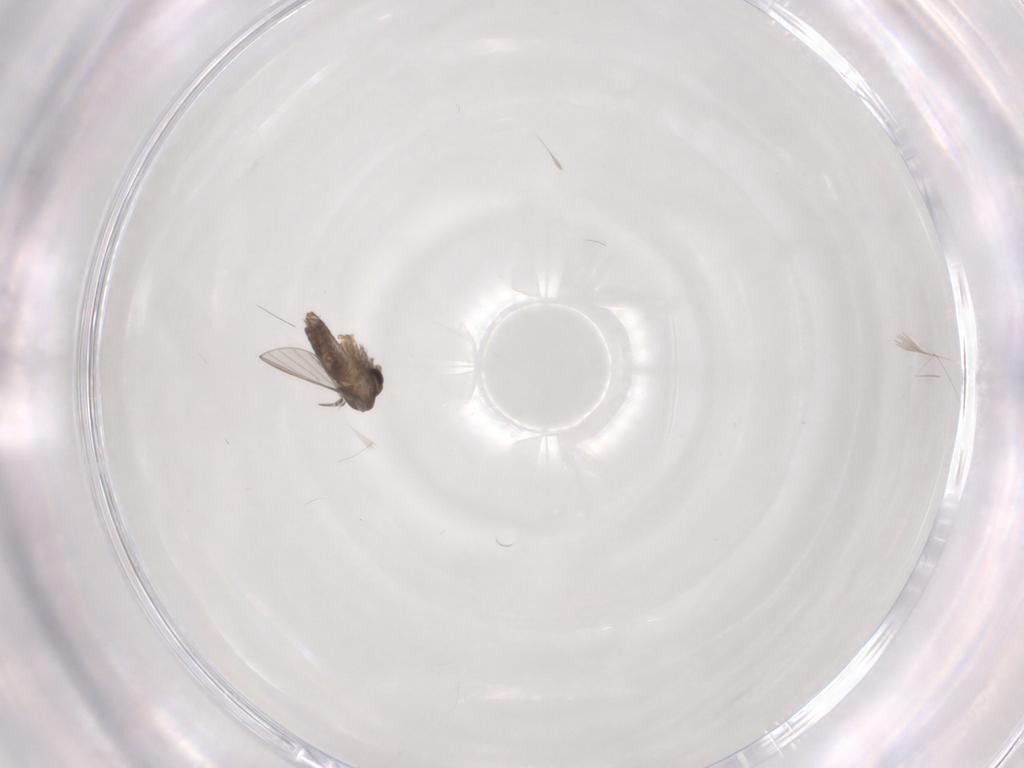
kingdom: Animalia
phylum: Arthropoda
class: Insecta
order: Diptera
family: Psychodidae
